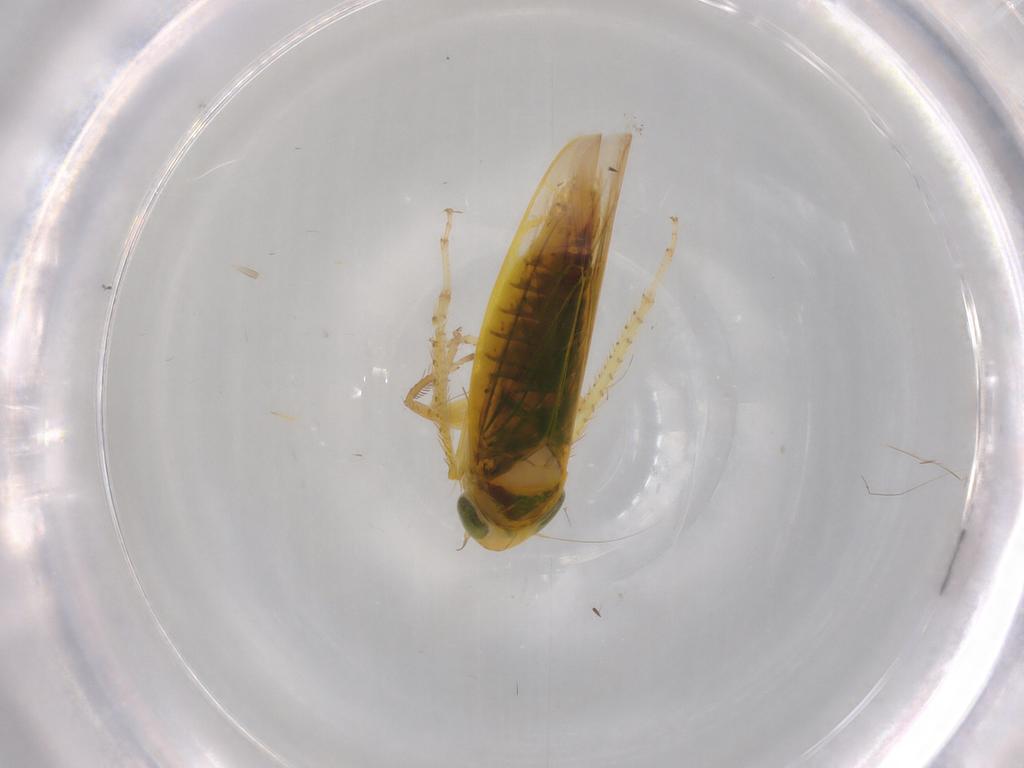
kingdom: Animalia
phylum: Arthropoda
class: Insecta
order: Hemiptera
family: Cicadellidae
